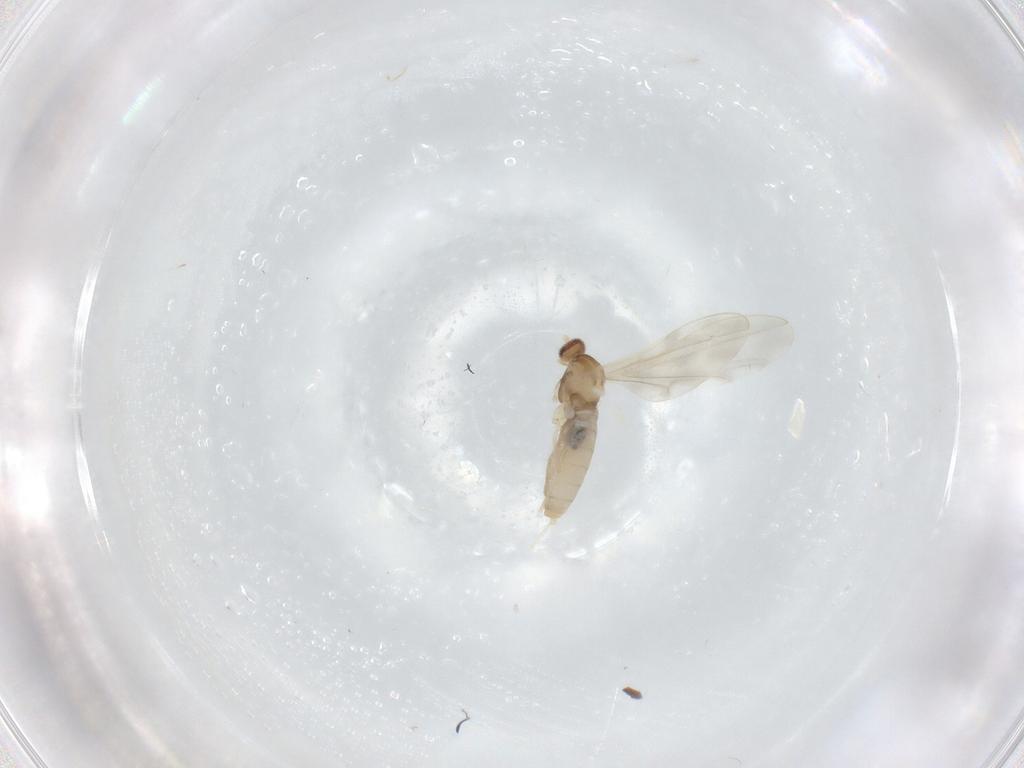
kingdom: Animalia
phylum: Arthropoda
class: Insecta
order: Diptera
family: Cecidomyiidae
